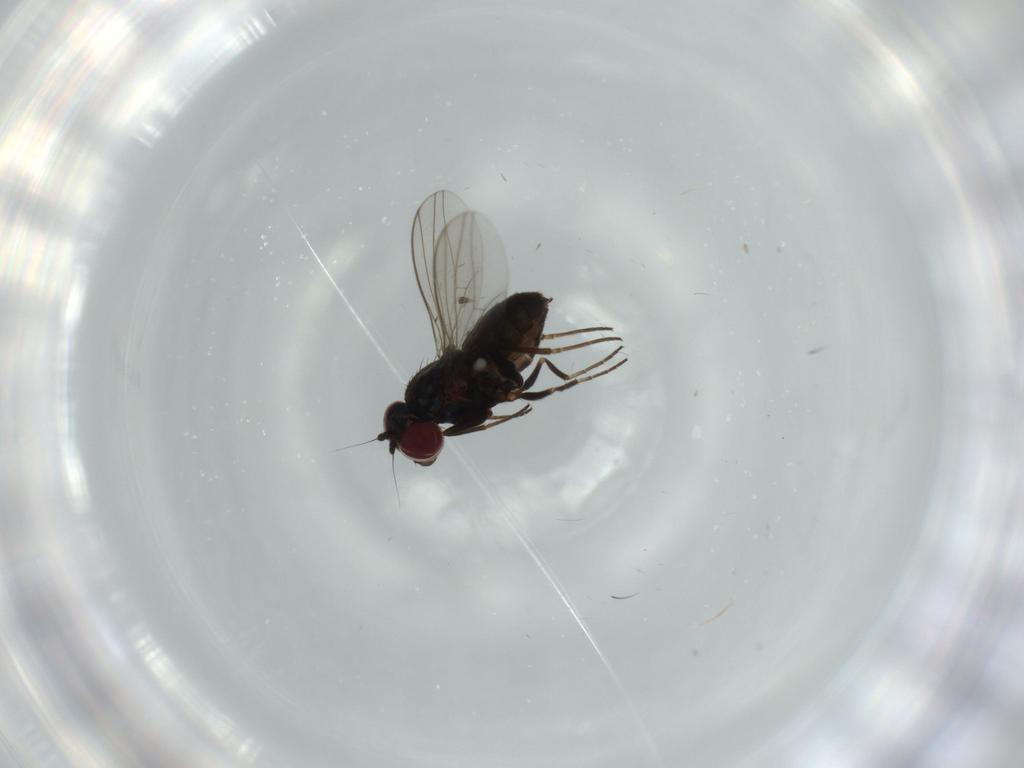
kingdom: Animalia
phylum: Arthropoda
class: Insecta
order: Diptera
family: Dolichopodidae
